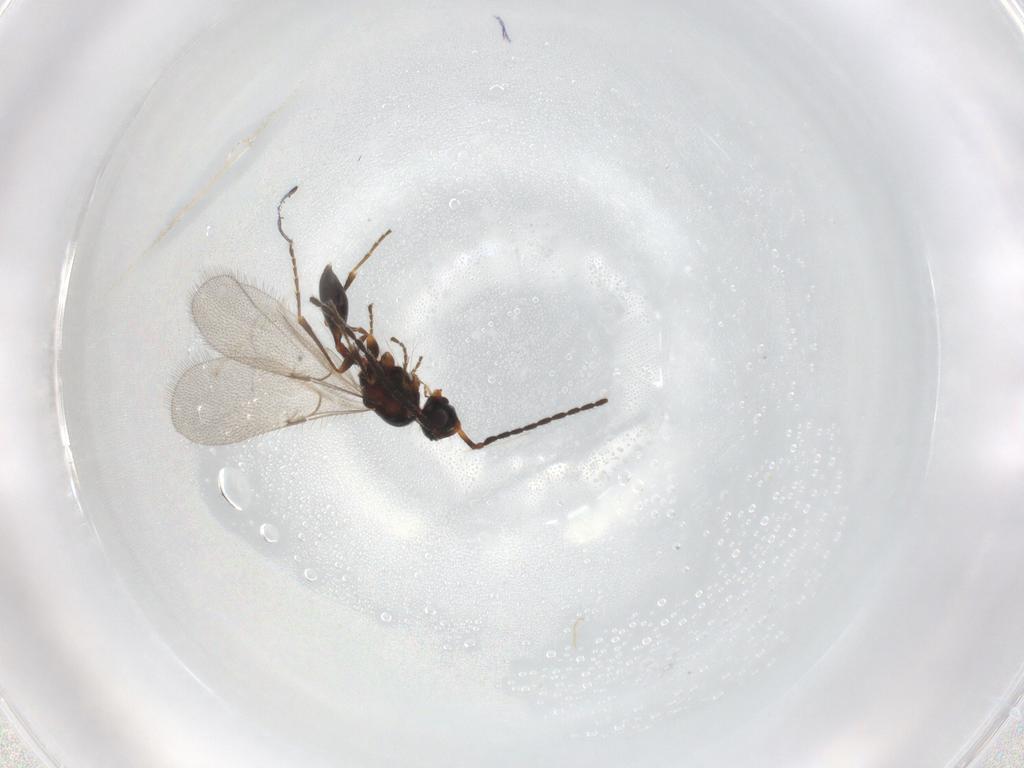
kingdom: Animalia
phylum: Arthropoda
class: Insecta
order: Hymenoptera
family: Diapriidae
